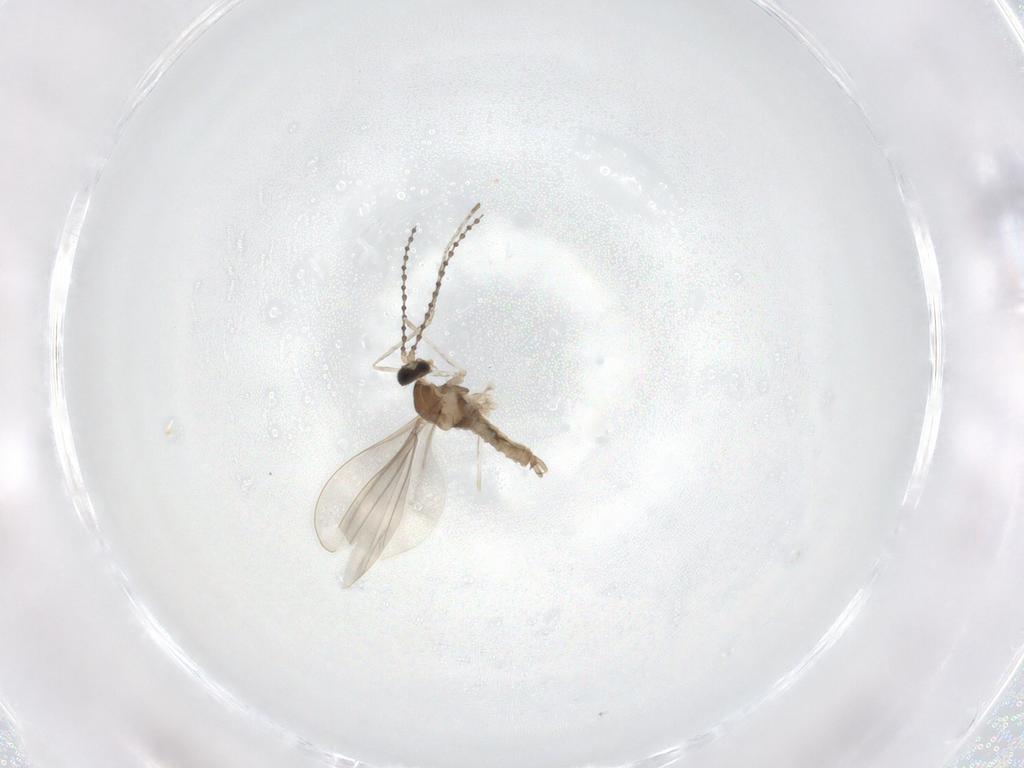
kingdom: Animalia
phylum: Arthropoda
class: Insecta
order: Diptera
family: Cecidomyiidae
